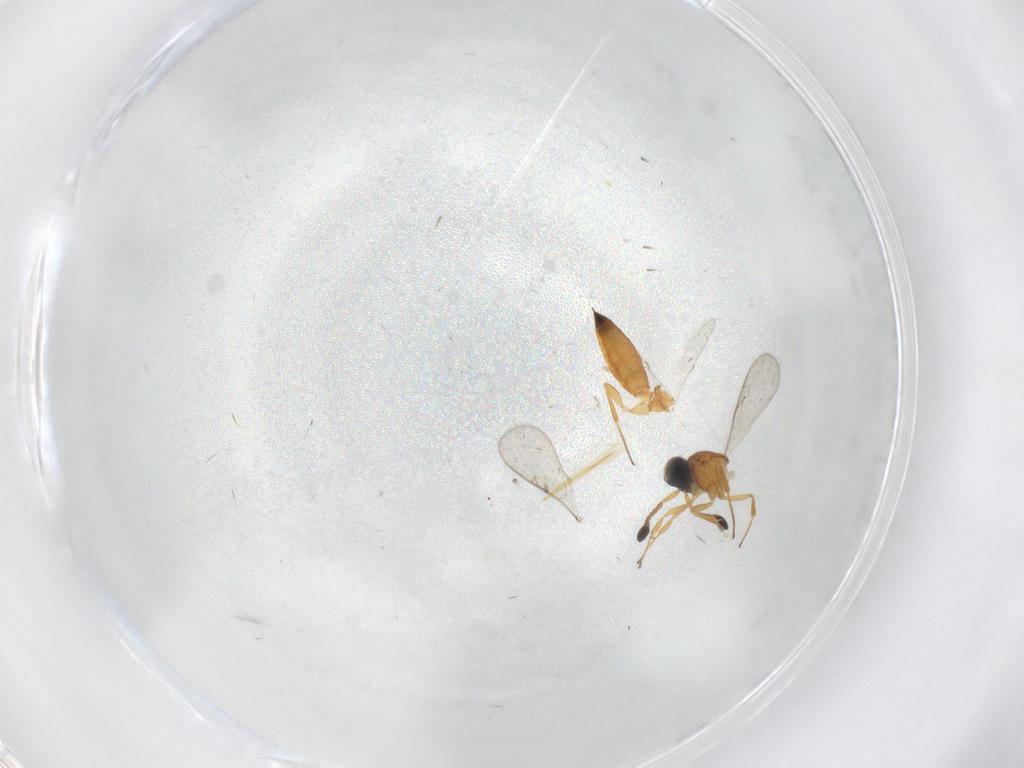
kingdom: Animalia
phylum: Arthropoda
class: Insecta
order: Hymenoptera
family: Scelionidae
